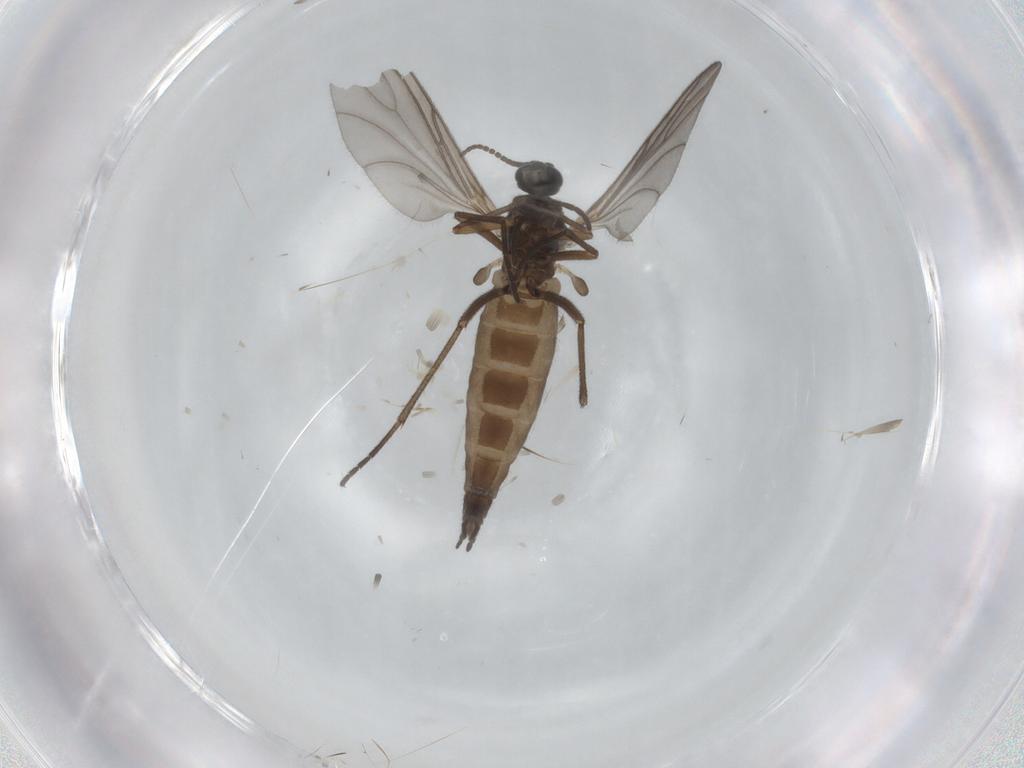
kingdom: Animalia
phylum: Arthropoda
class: Insecta
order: Diptera
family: Sciaridae
